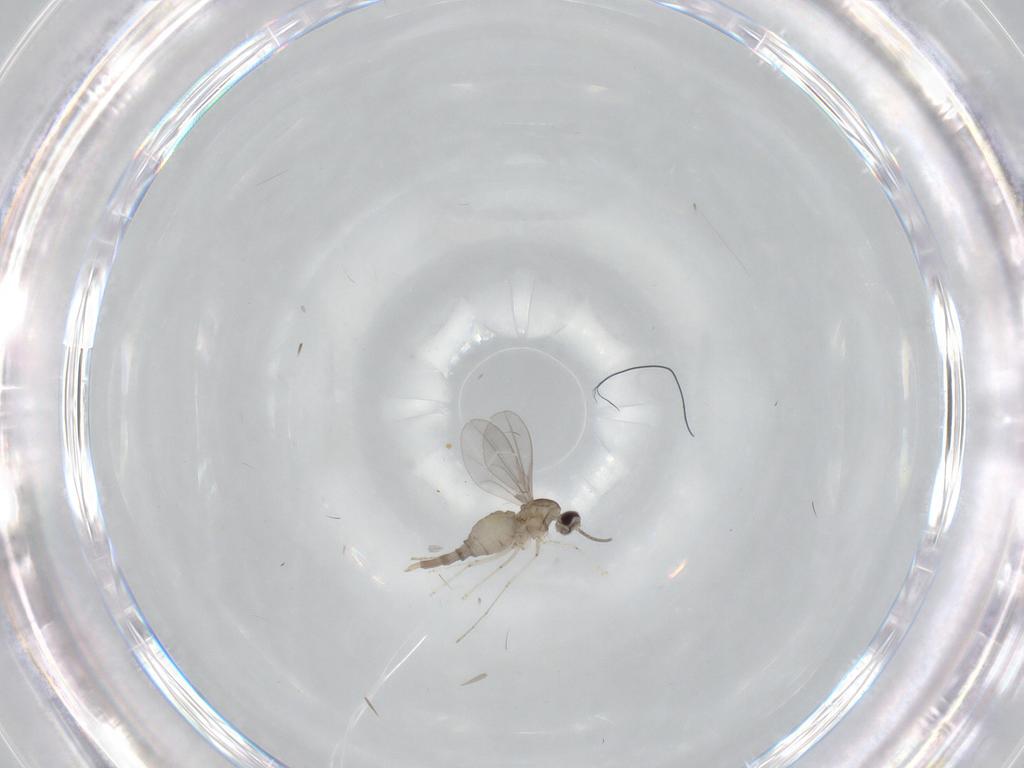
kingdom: Animalia
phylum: Arthropoda
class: Insecta
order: Diptera
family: Cecidomyiidae
